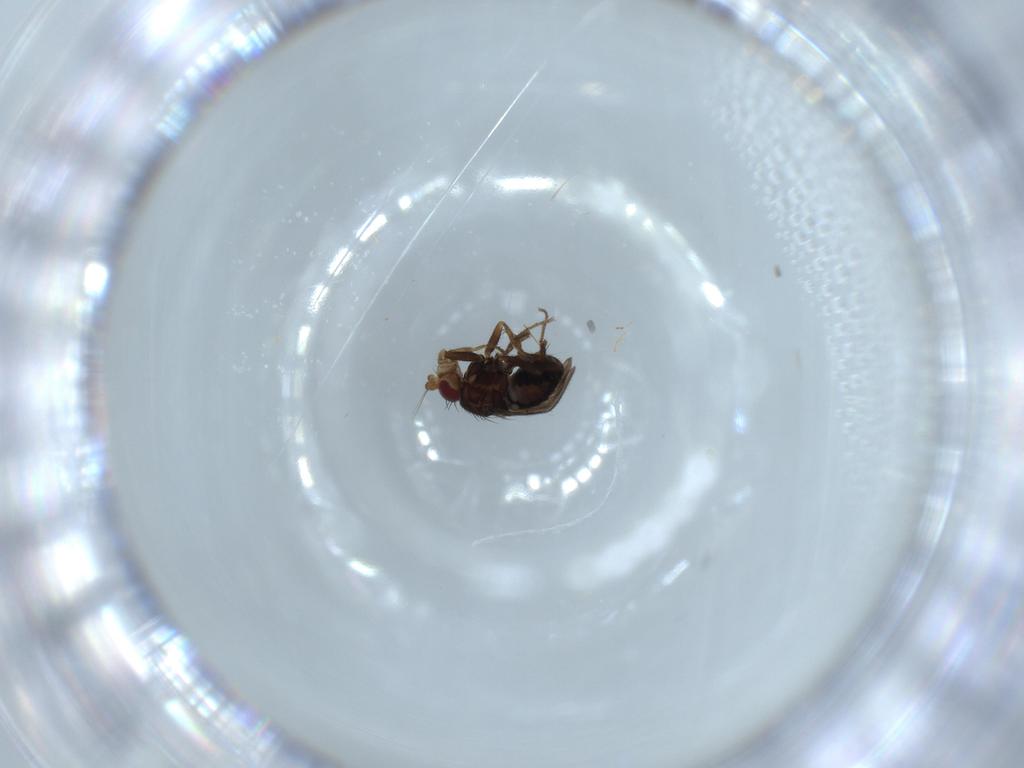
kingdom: Animalia
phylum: Arthropoda
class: Insecta
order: Diptera
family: Sphaeroceridae
